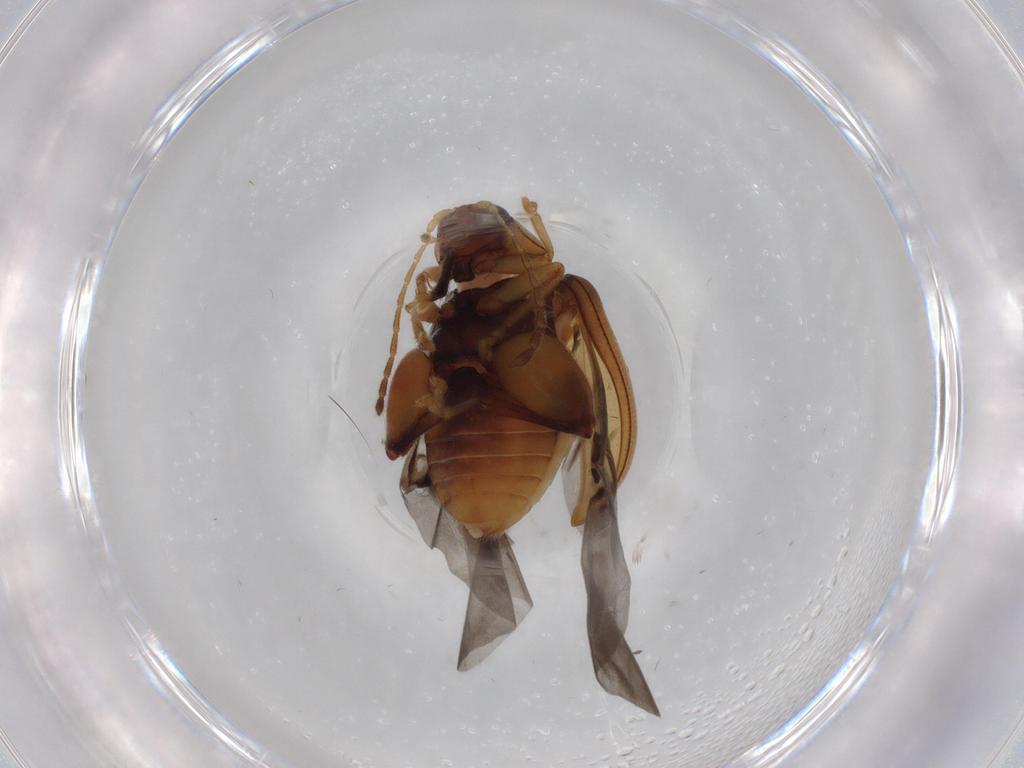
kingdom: Animalia
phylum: Arthropoda
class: Insecta
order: Coleoptera
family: Chrysomelidae
